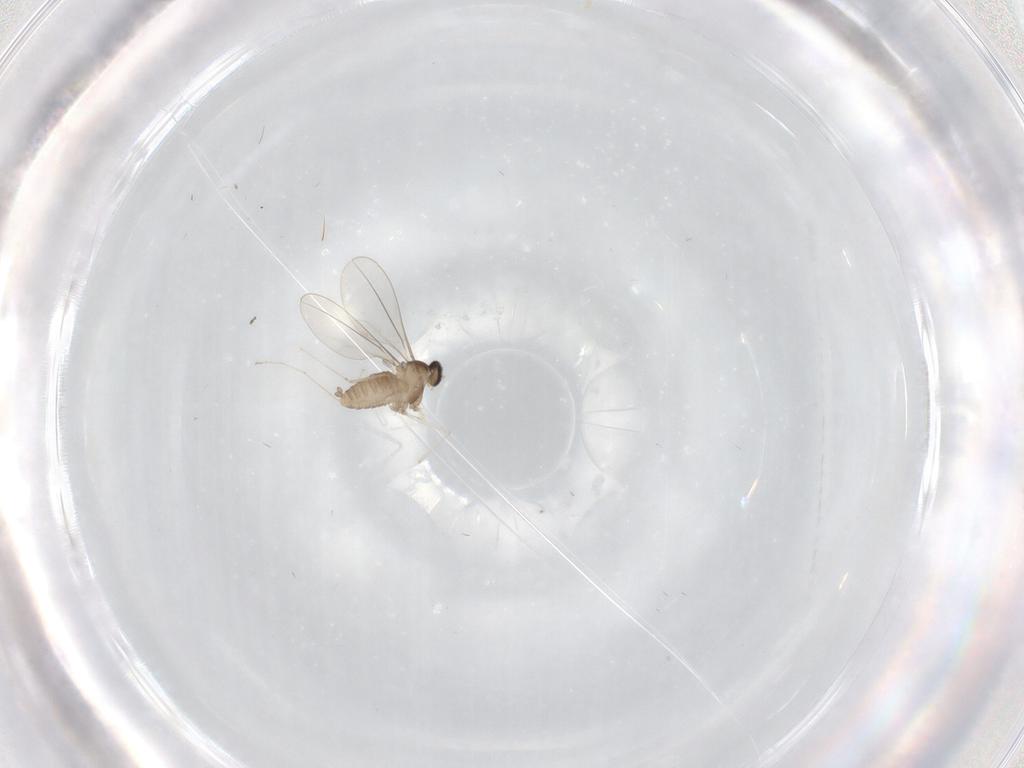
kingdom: Animalia
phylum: Arthropoda
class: Insecta
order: Diptera
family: Cecidomyiidae
